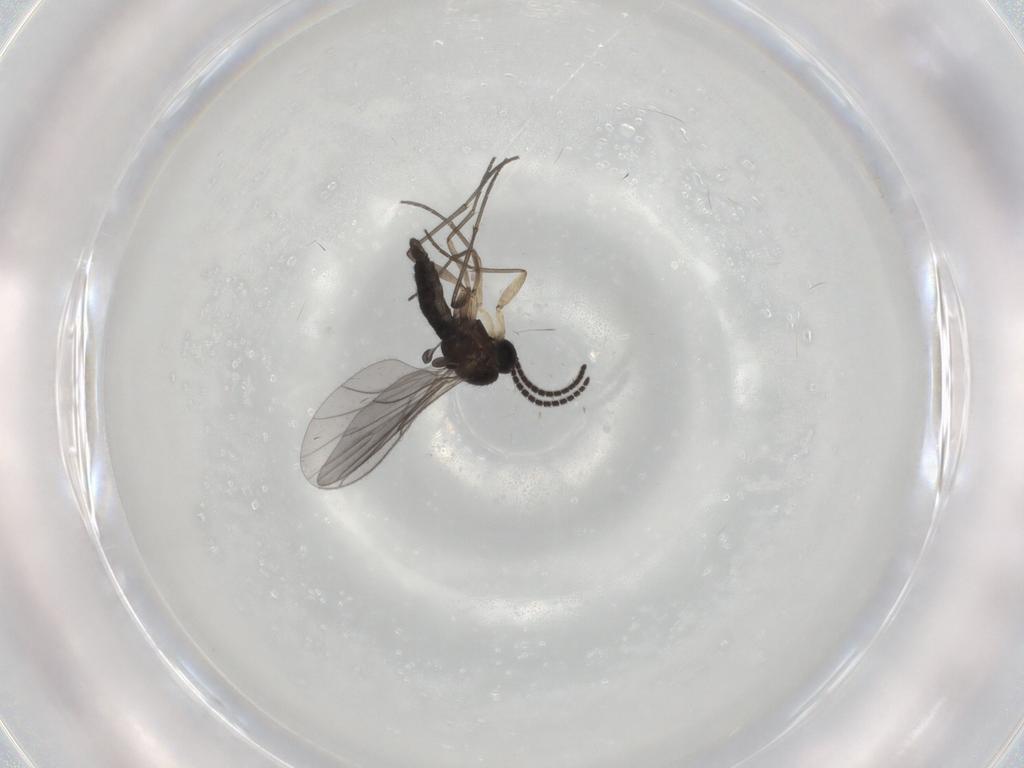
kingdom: Animalia
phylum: Arthropoda
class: Insecta
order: Diptera
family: Sciaridae
